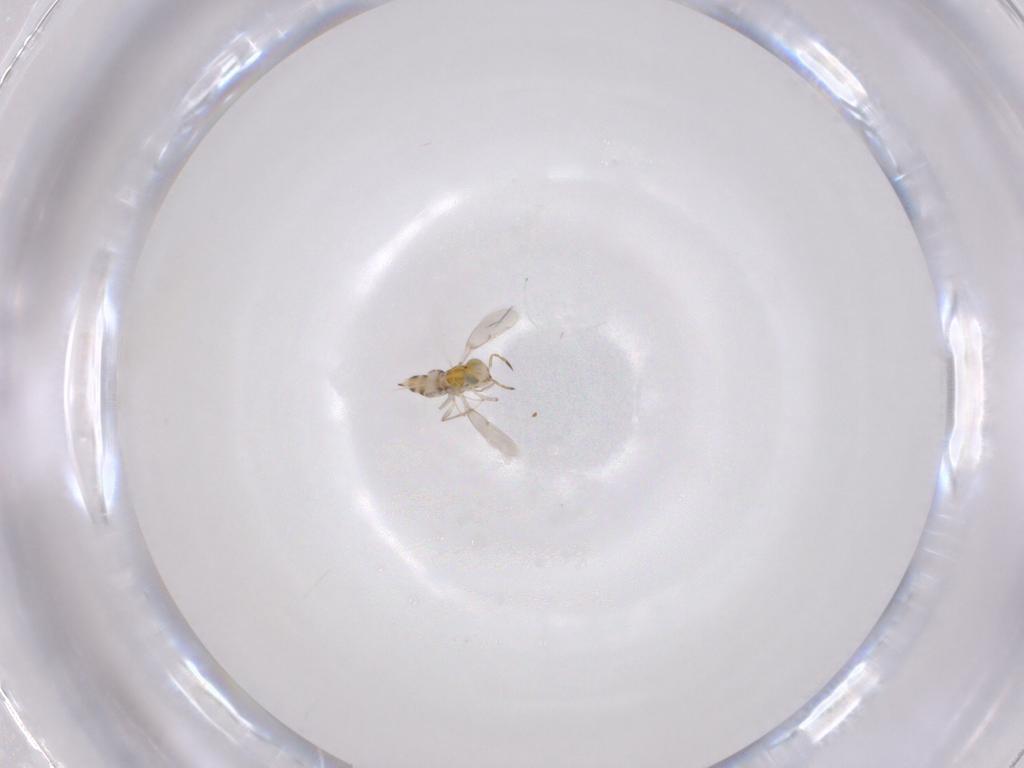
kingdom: Animalia
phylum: Arthropoda
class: Insecta
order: Hymenoptera
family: Aphelinidae
